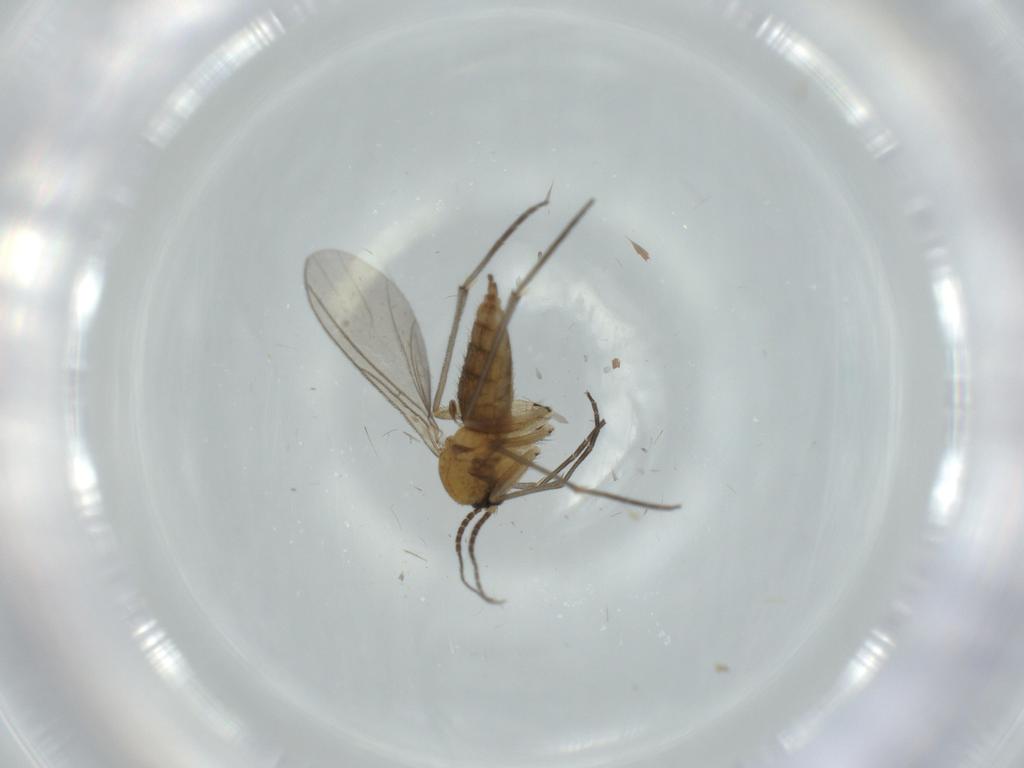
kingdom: Animalia
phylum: Arthropoda
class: Insecta
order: Diptera
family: Sciaridae
